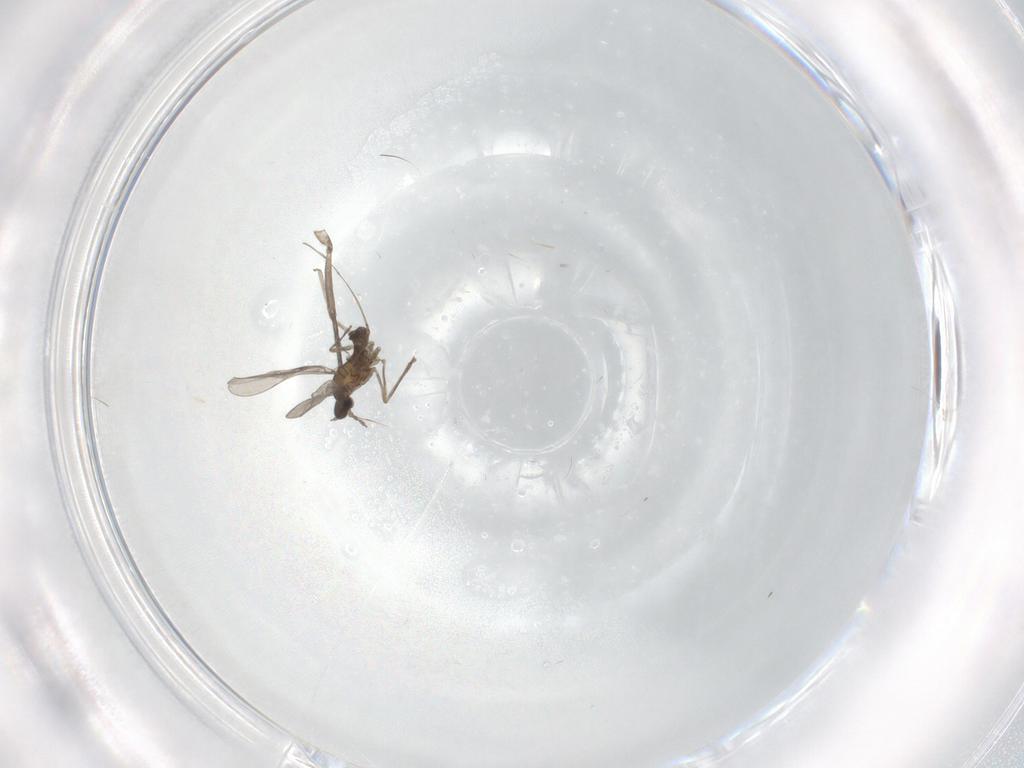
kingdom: Animalia
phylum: Arthropoda
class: Insecta
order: Diptera
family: Cecidomyiidae
